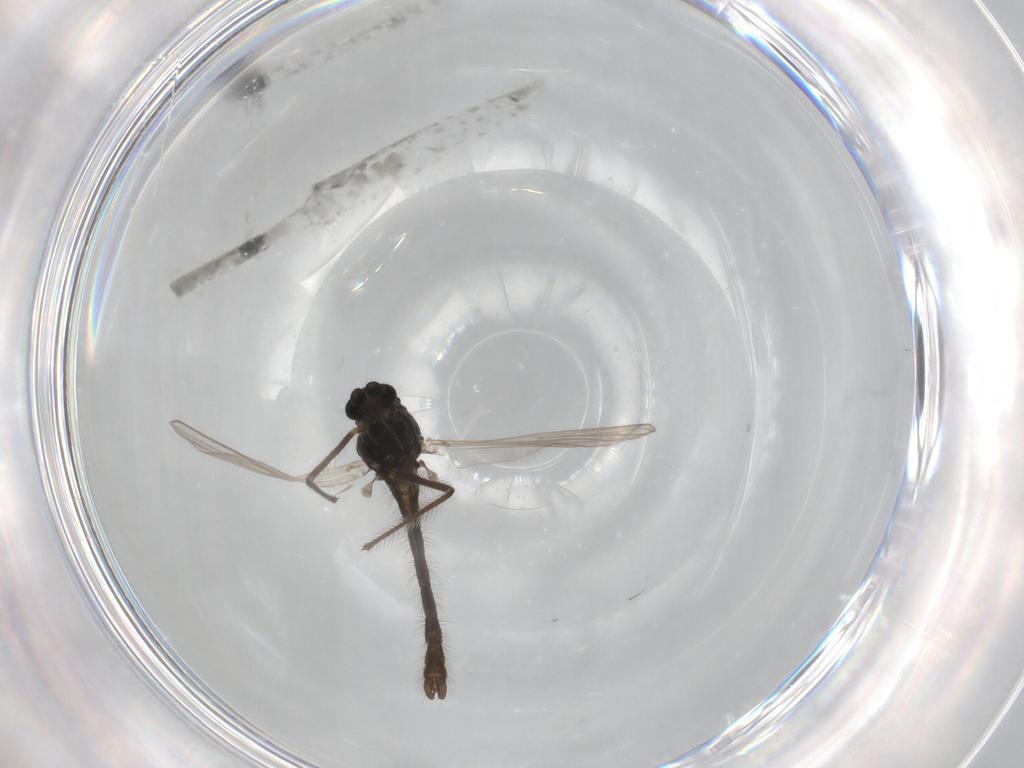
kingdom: Animalia
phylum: Arthropoda
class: Insecta
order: Diptera
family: Chironomidae
